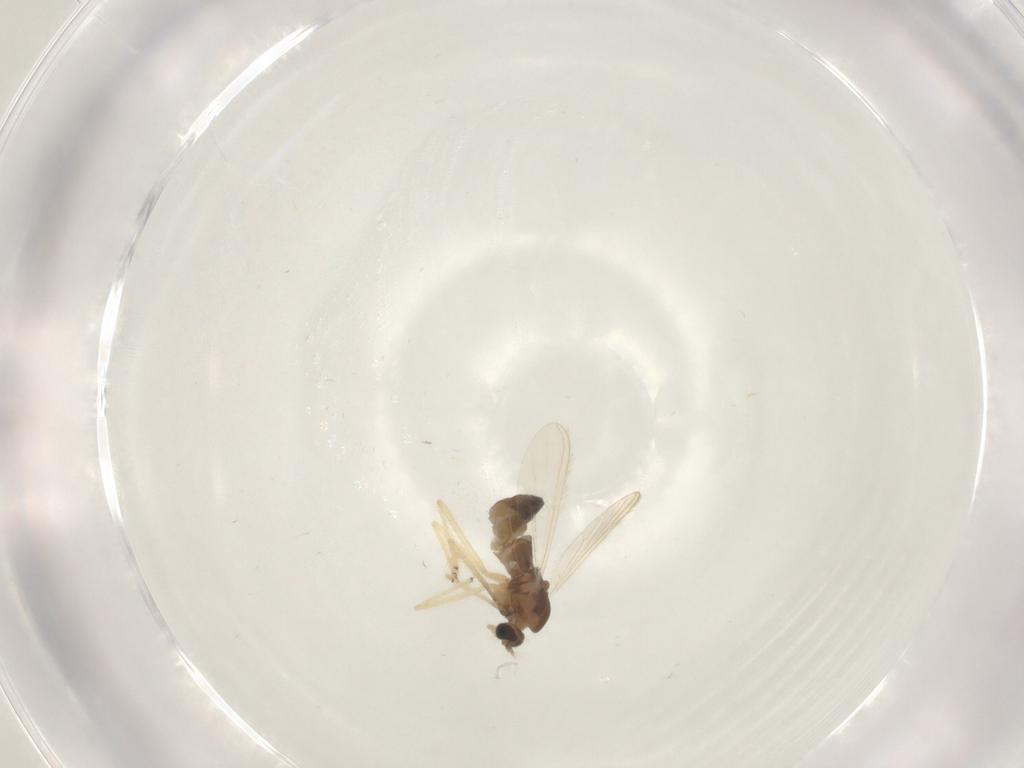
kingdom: Animalia
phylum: Arthropoda
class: Insecta
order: Diptera
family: Chironomidae
